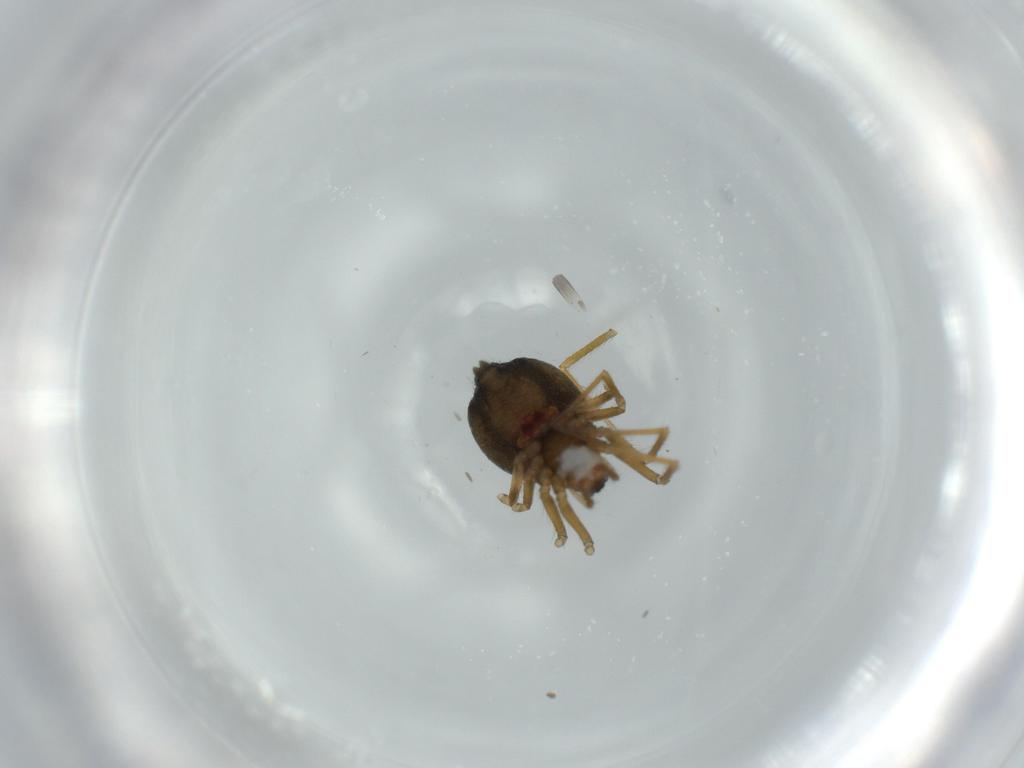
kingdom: Animalia
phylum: Arthropoda
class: Arachnida
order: Araneae
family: Linyphiidae
